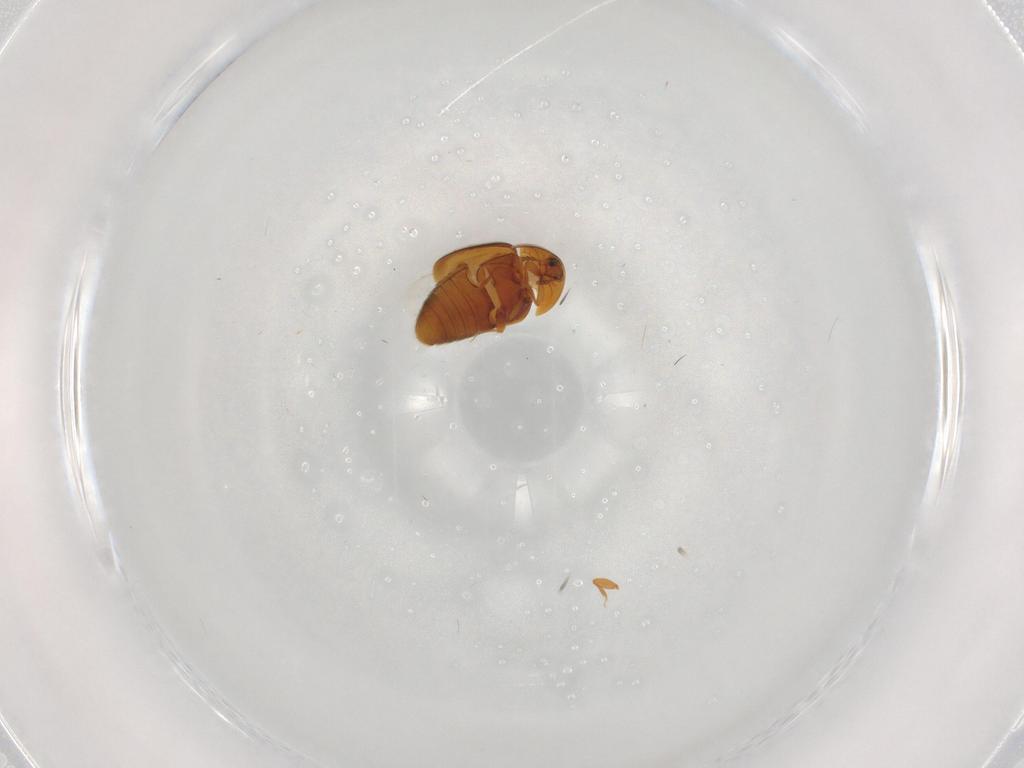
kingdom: Animalia
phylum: Arthropoda
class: Insecta
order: Coleoptera
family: Corylophidae
